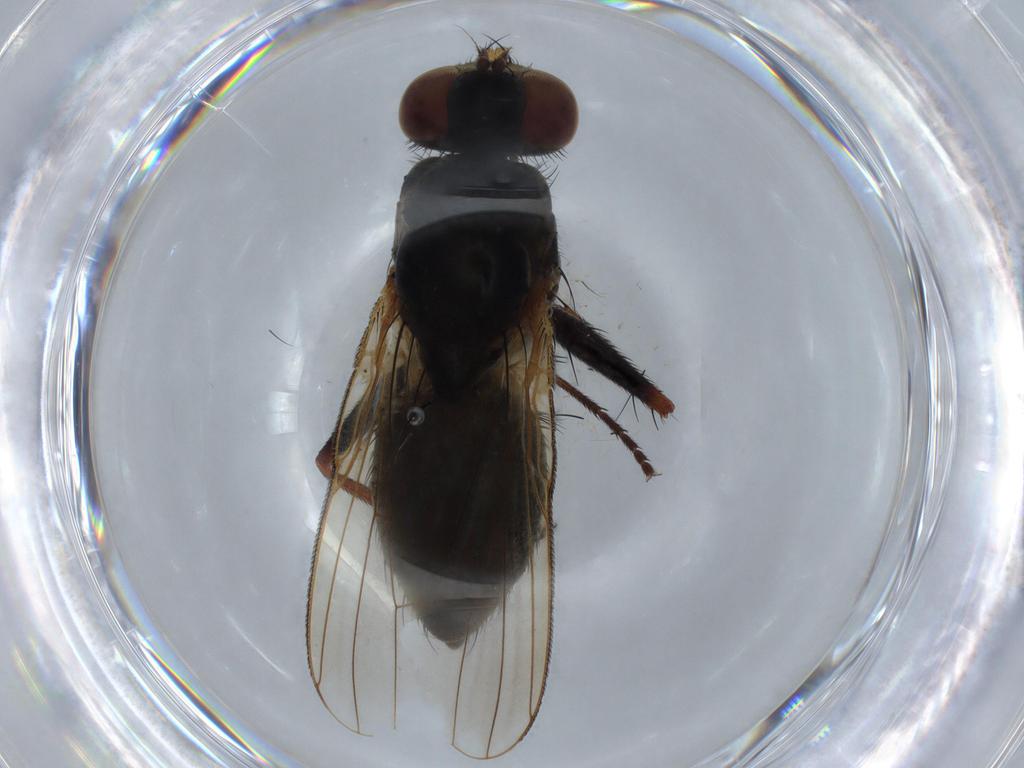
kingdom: Animalia
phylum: Arthropoda
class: Insecta
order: Diptera
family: Muscidae
